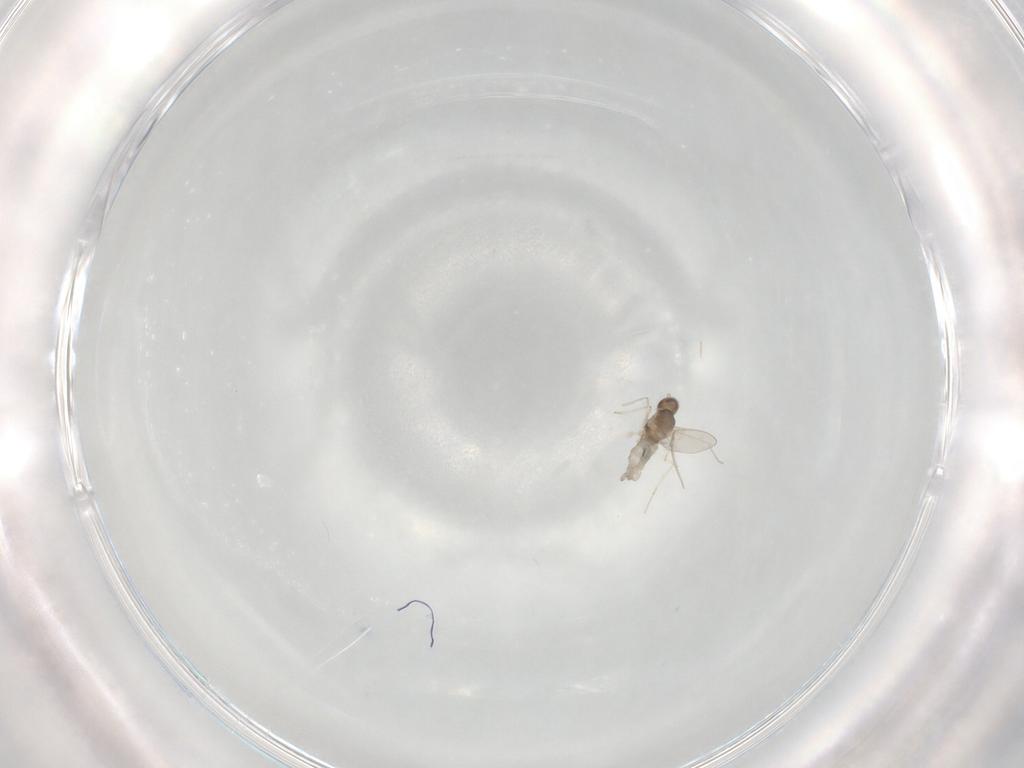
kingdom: Animalia
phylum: Arthropoda
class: Insecta
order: Diptera
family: Cecidomyiidae
